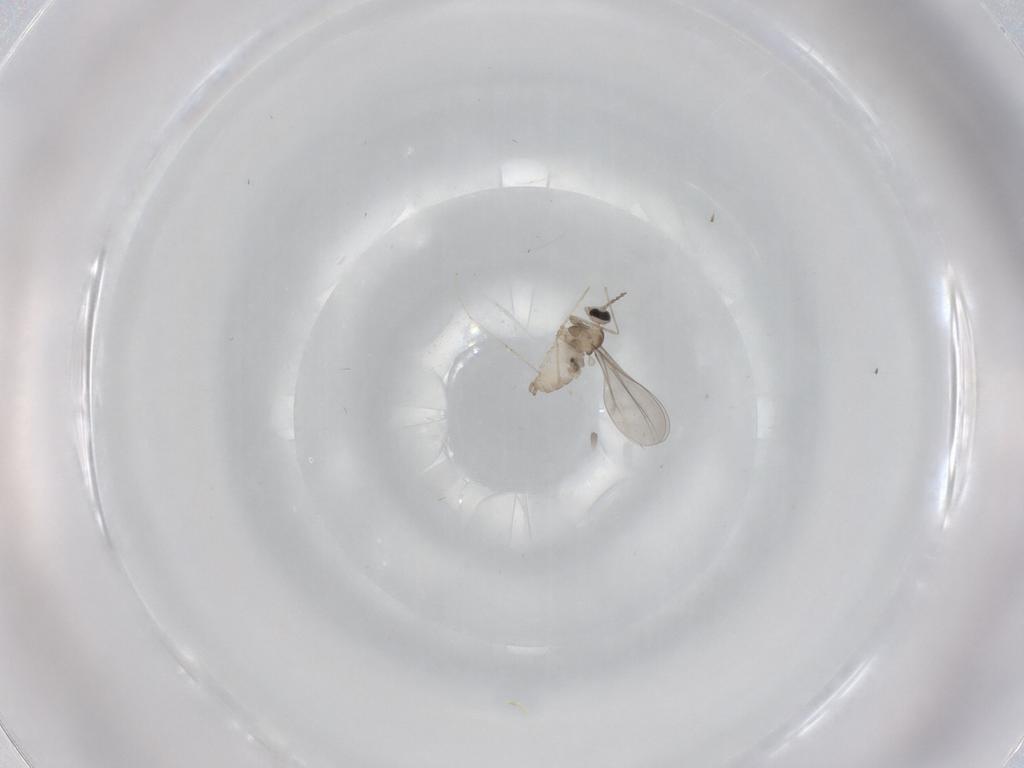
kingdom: Animalia
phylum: Arthropoda
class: Insecta
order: Diptera
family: Cecidomyiidae
